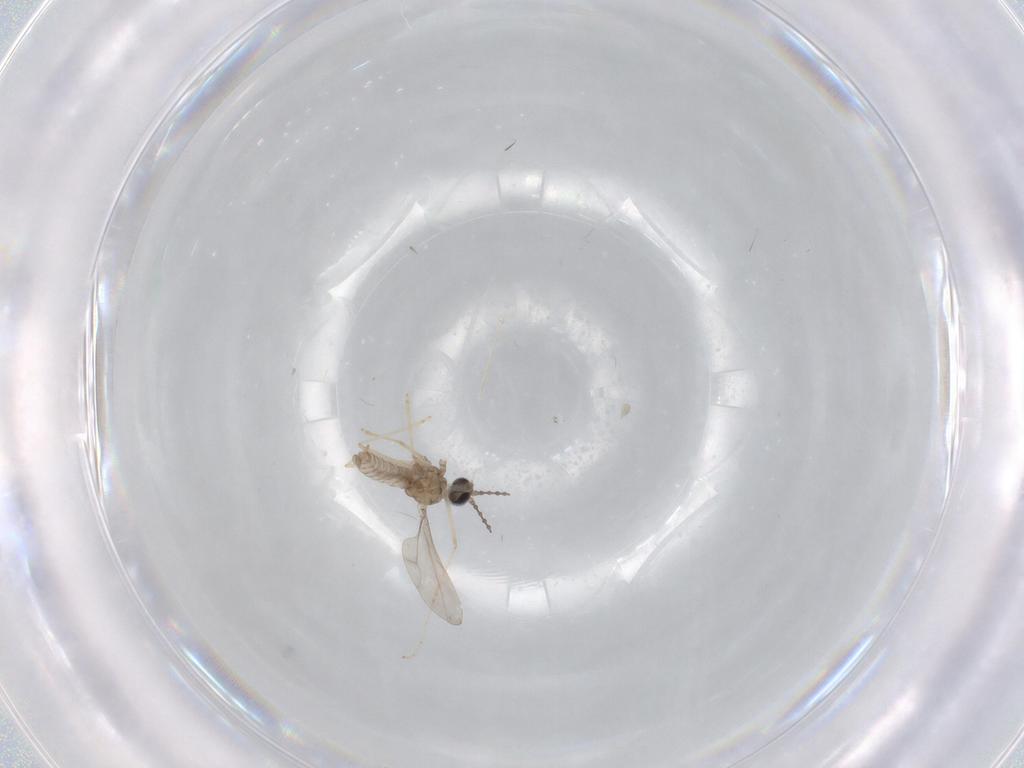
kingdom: Animalia
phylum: Arthropoda
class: Insecta
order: Diptera
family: Cecidomyiidae
